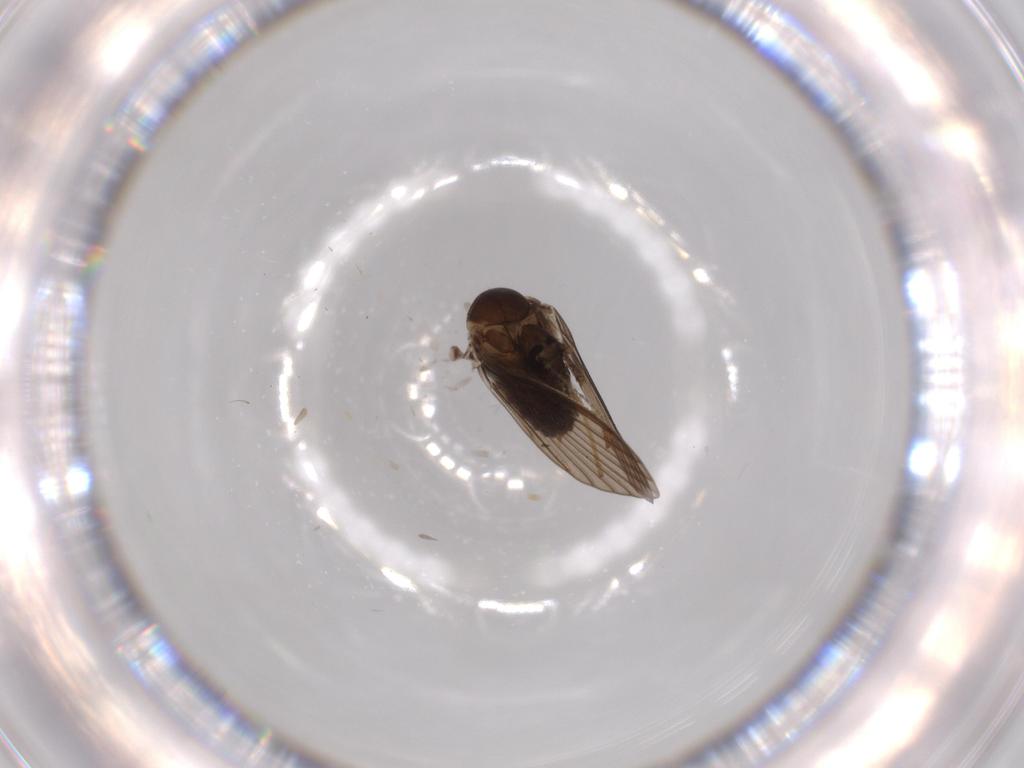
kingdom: Animalia
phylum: Arthropoda
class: Insecta
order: Diptera
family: Psychodidae
